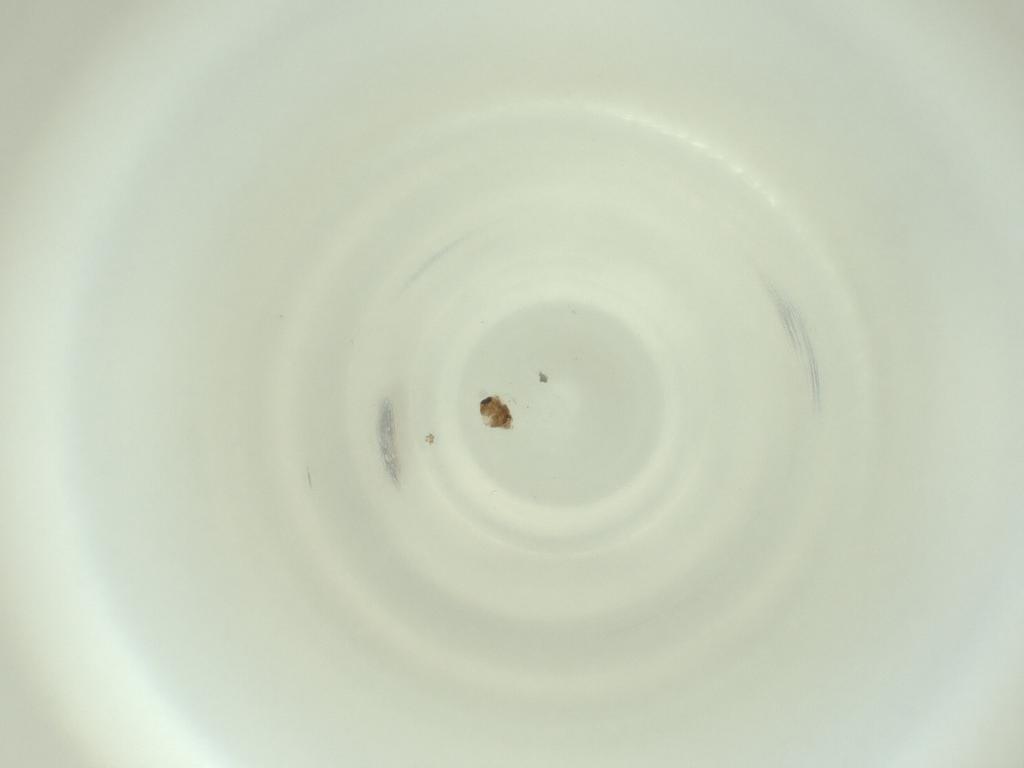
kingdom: Animalia
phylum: Arthropoda
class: Insecta
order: Diptera
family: Cecidomyiidae
